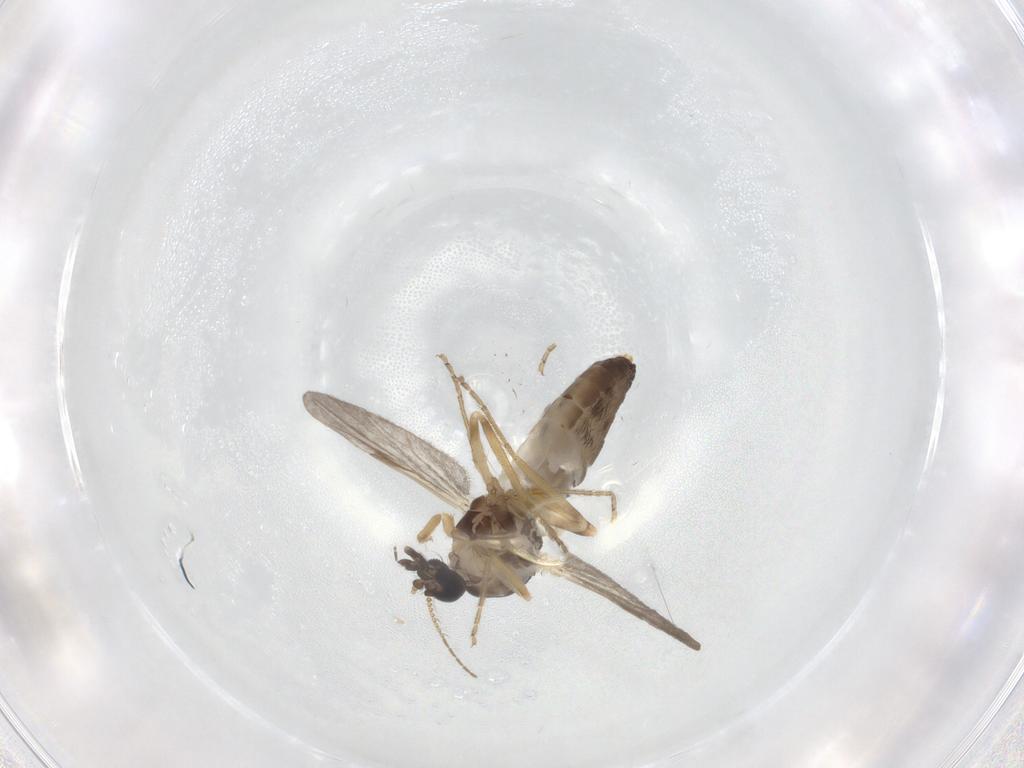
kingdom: Animalia
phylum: Arthropoda
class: Insecta
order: Diptera
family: Ceratopogonidae
